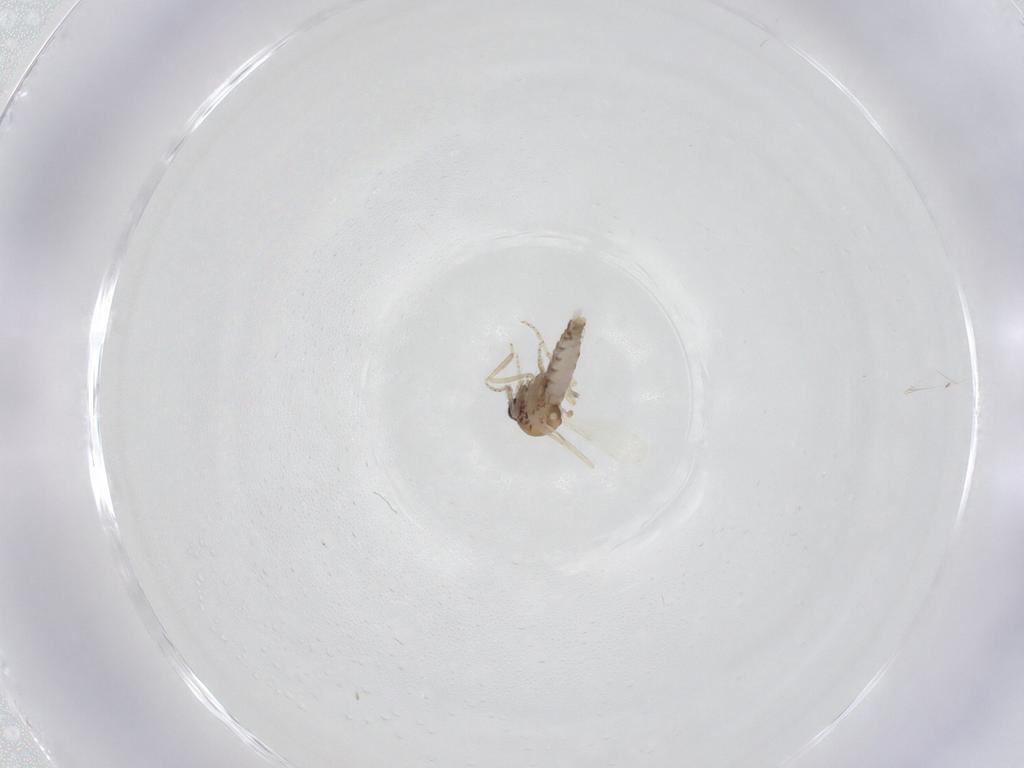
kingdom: Animalia
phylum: Arthropoda
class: Insecta
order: Diptera
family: Ceratopogonidae
